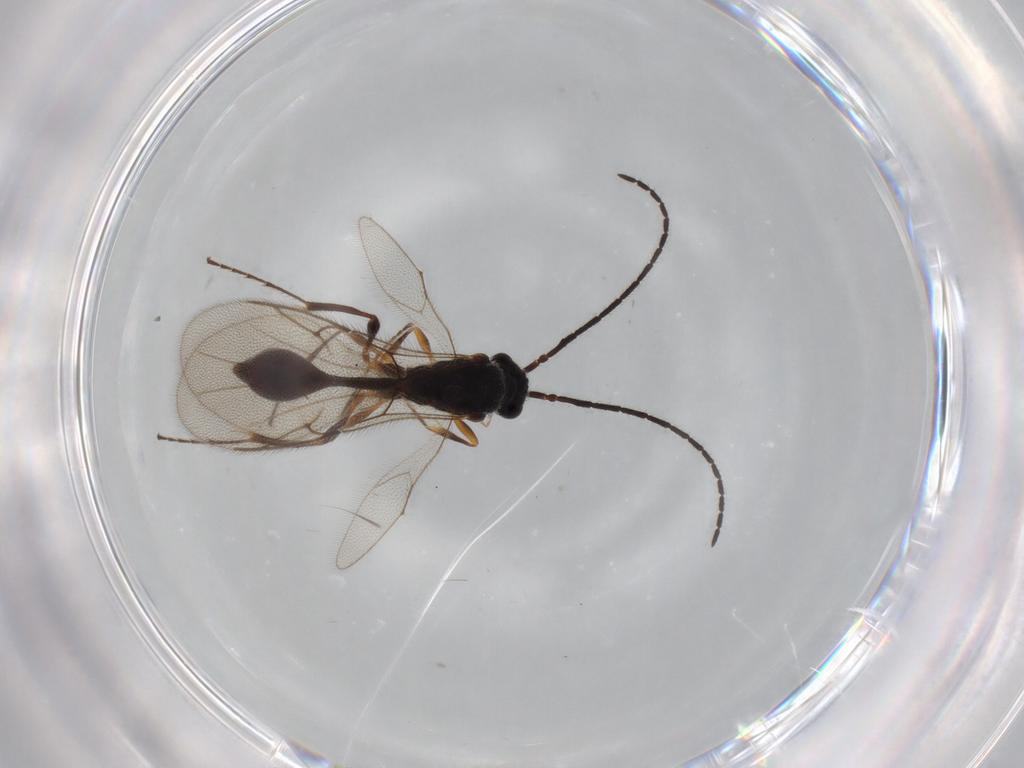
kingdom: Animalia
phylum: Arthropoda
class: Insecta
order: Hymenoptera
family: Diapriidae
